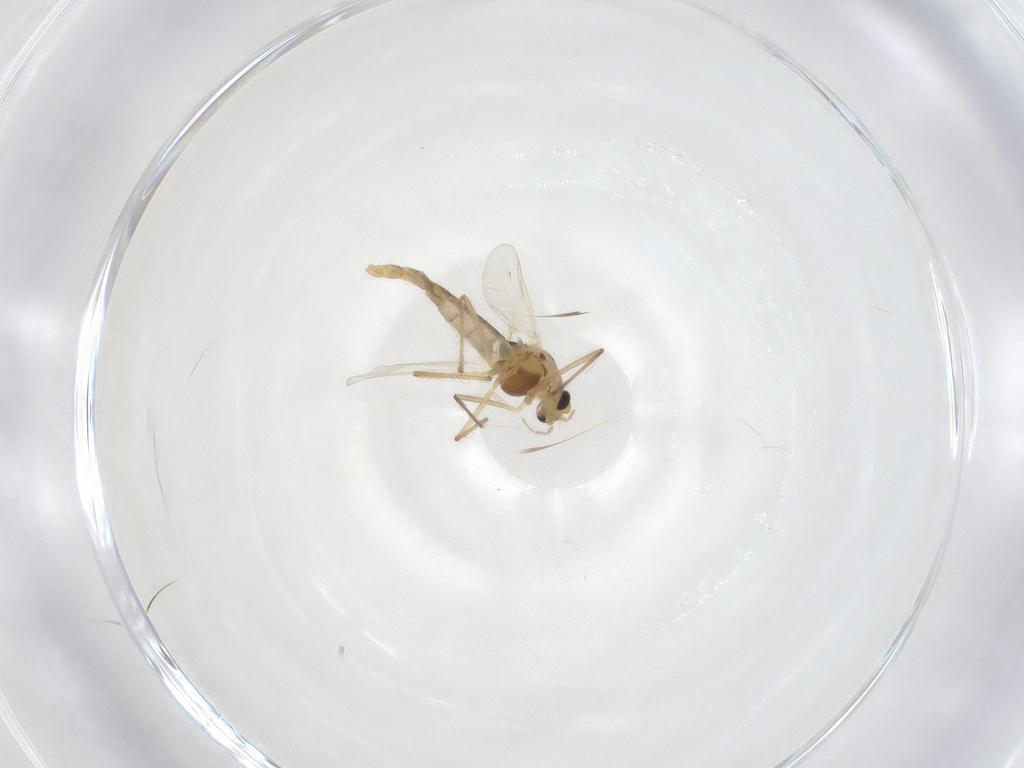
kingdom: Animalia
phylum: Arthropoda
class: Insecta
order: Diptera
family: Chironomidae
